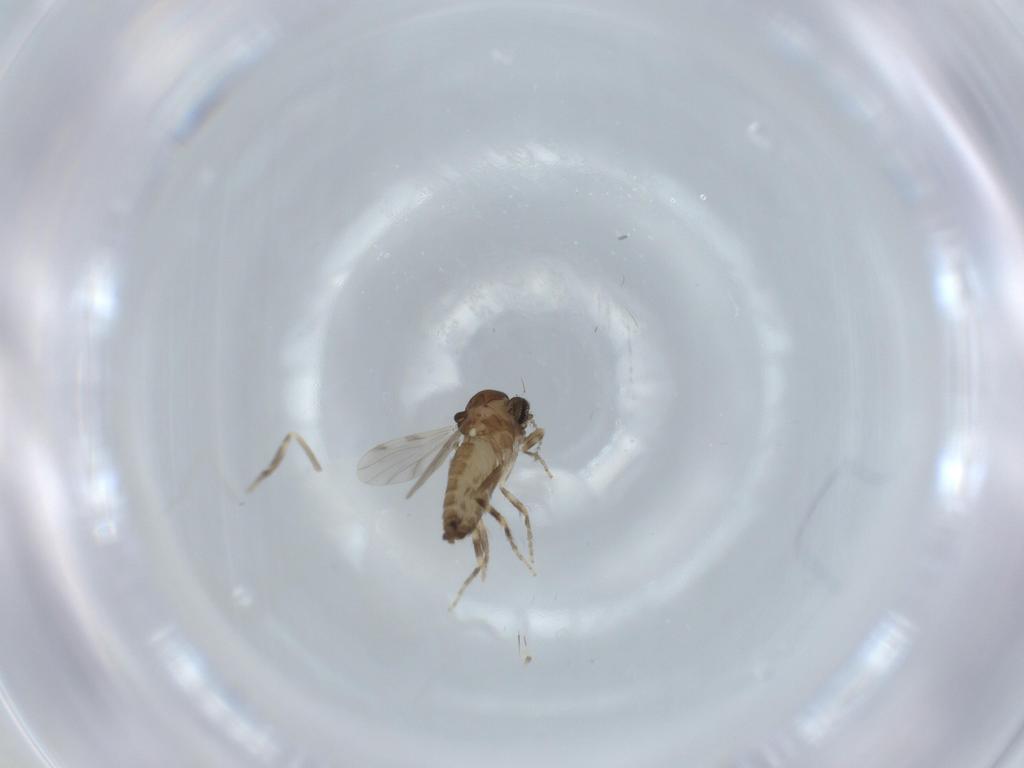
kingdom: Animalia
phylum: Arthropoda
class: Insecta
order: Diptera
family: Ceratopogonidae
